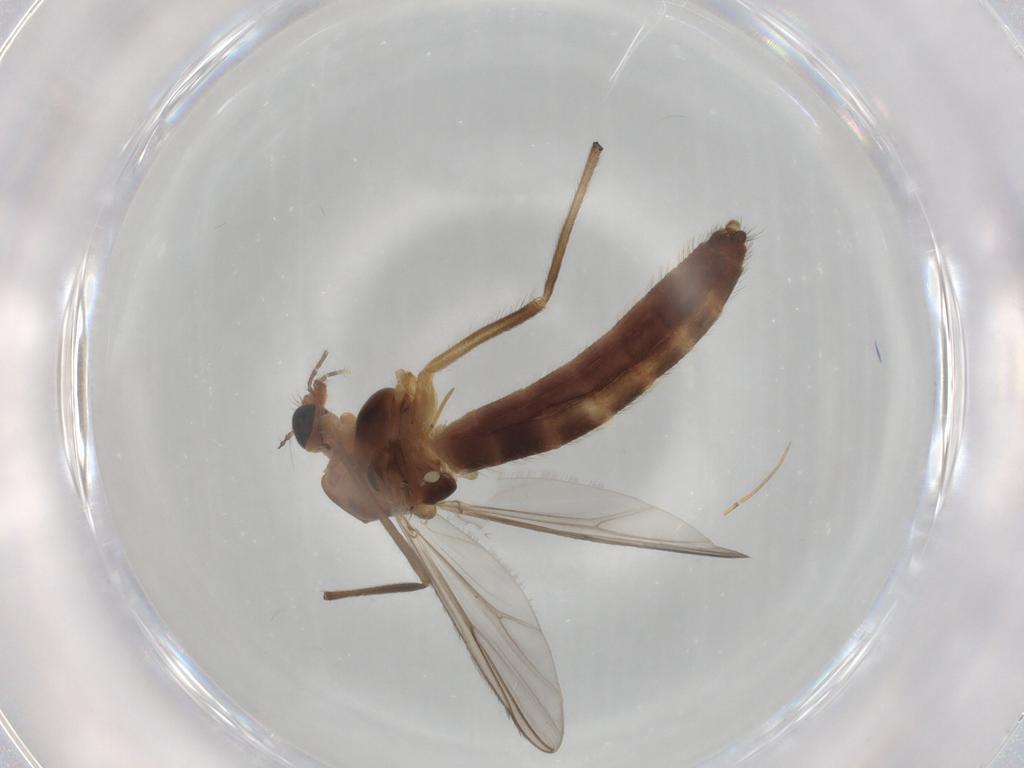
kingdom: Animalia
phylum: Arthropoda
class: Insecta
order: Diptera
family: Chironomidae
